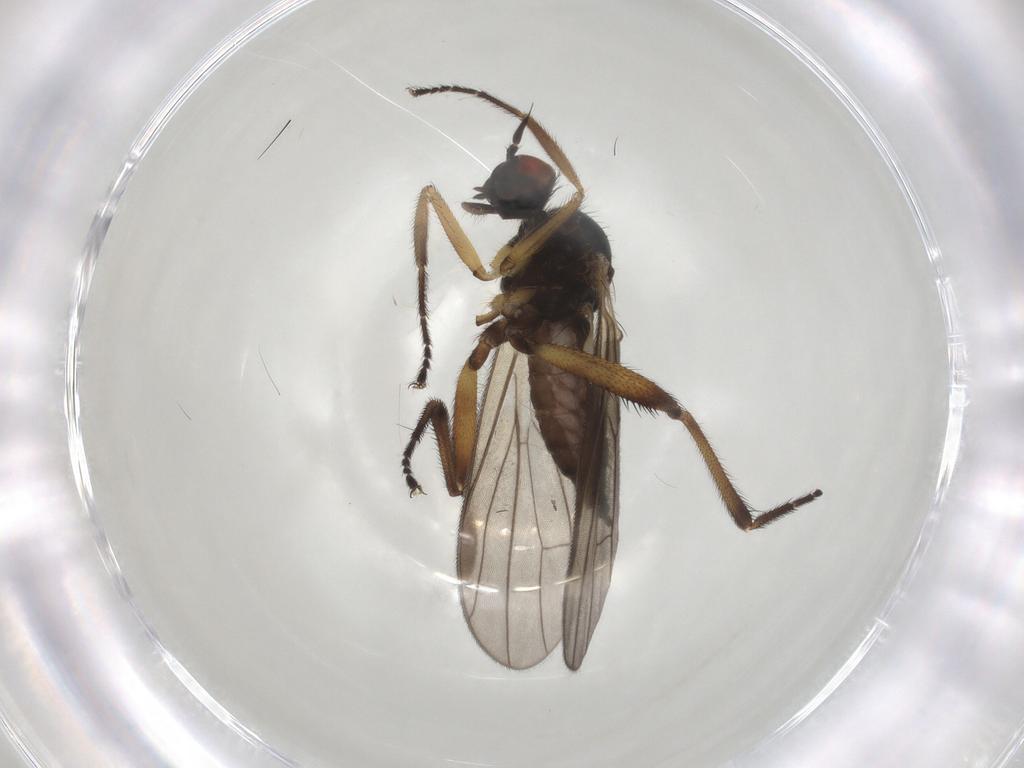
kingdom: Animalia
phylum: Arthropoda
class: Insecta
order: Diptera
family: Hybotidae
